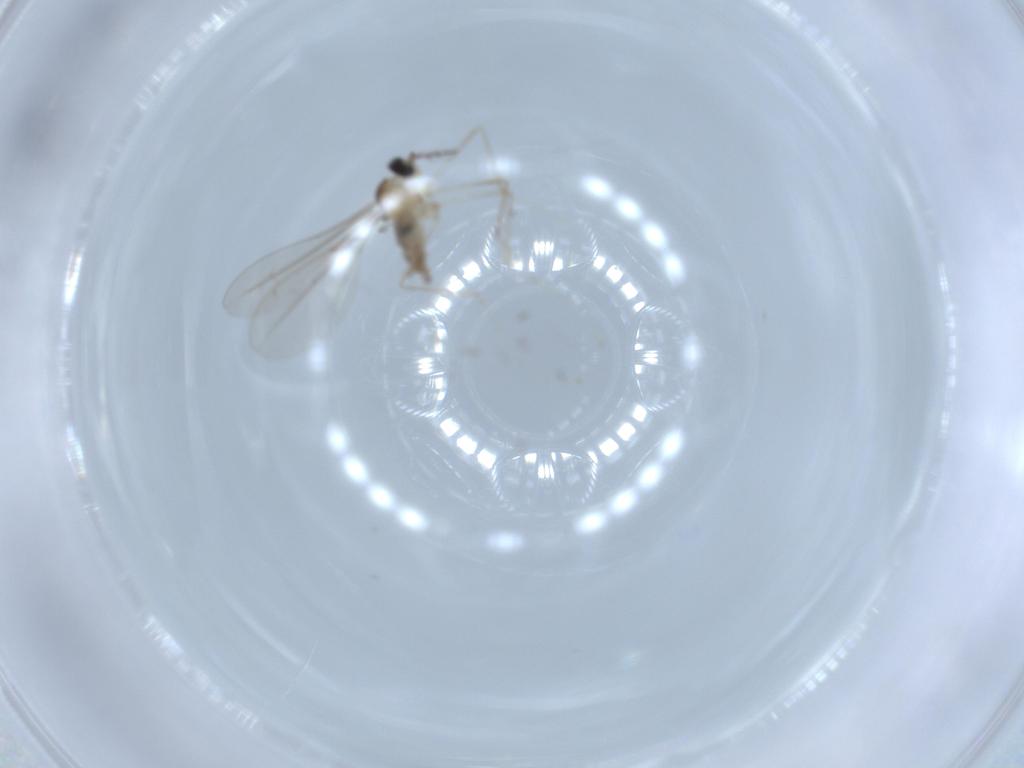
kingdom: Animalia
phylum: Arthropoda
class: Insecta
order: Diptera
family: Cecidomyiidae
